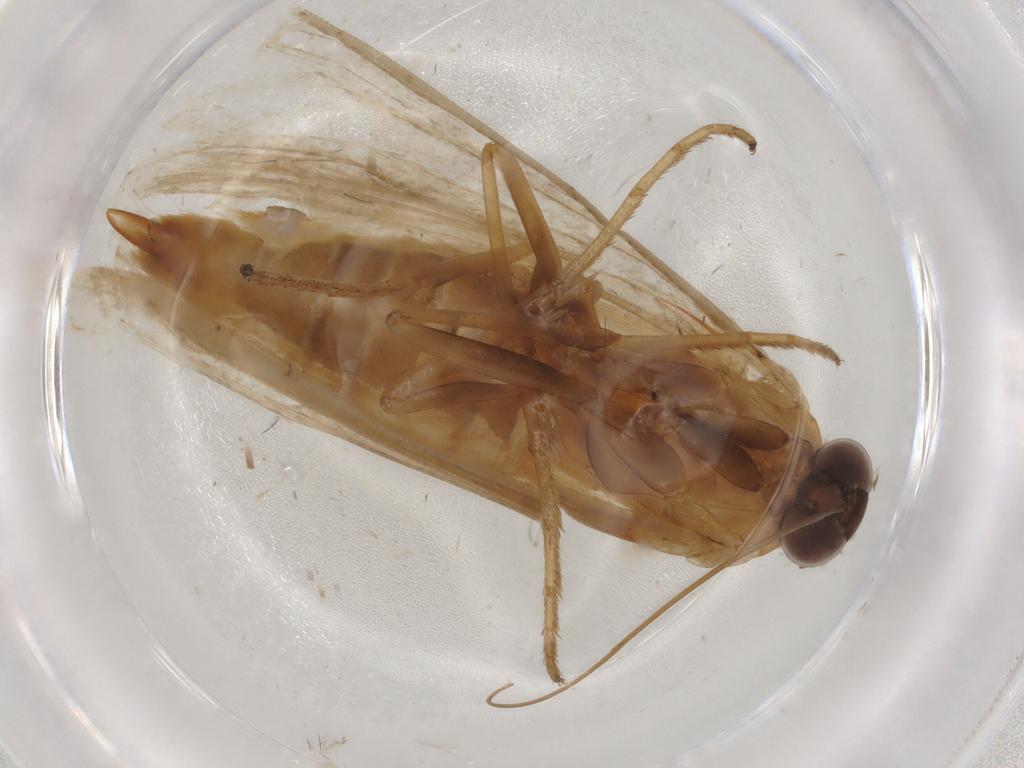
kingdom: Animalia
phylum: Arthropoda
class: Insecta
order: Lepidoptera
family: Pyralidae
